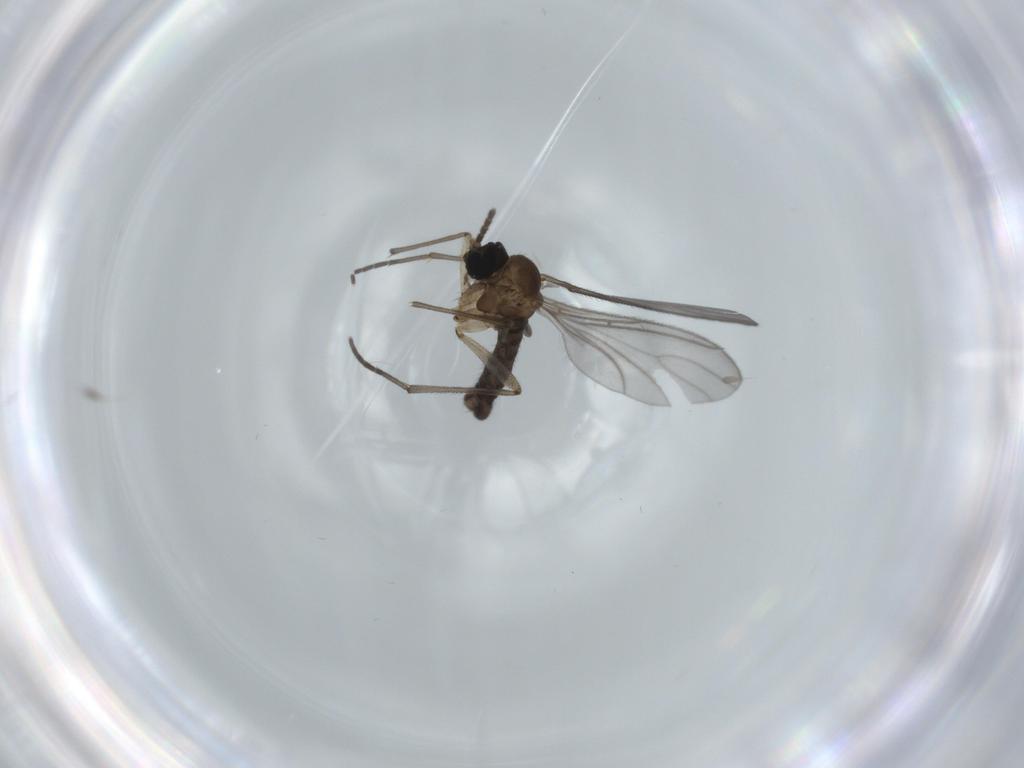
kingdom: Animalia
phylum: Arthropoda
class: Insecta
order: Diptera
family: Sciaridae
